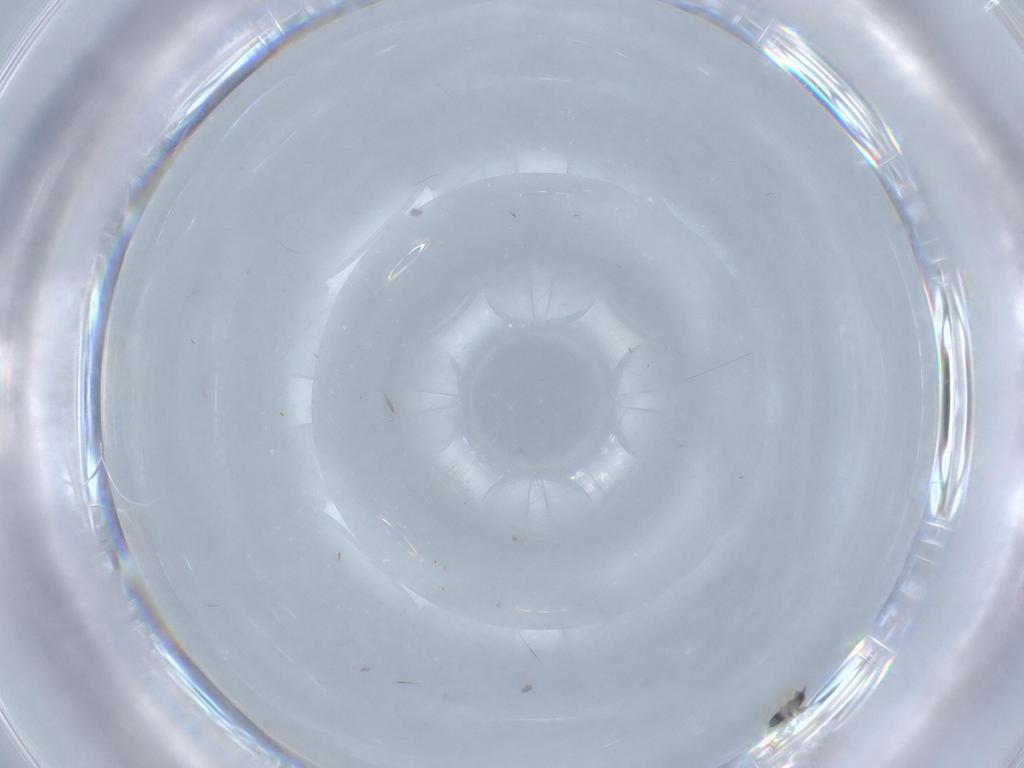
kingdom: Animalia
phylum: Arthropoda
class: Insecta
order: Hymenoptera
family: Trichogrammatidae
